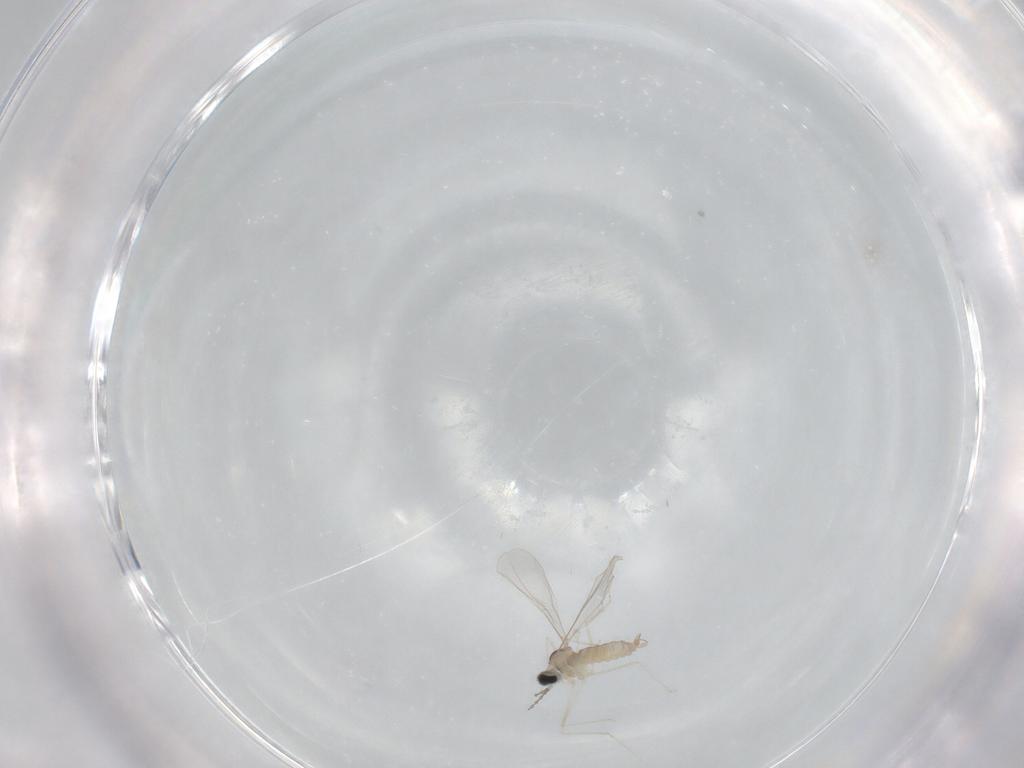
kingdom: Animalia
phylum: Arthropoda
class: Insecta
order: Diptera
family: Cecidomyiidae
